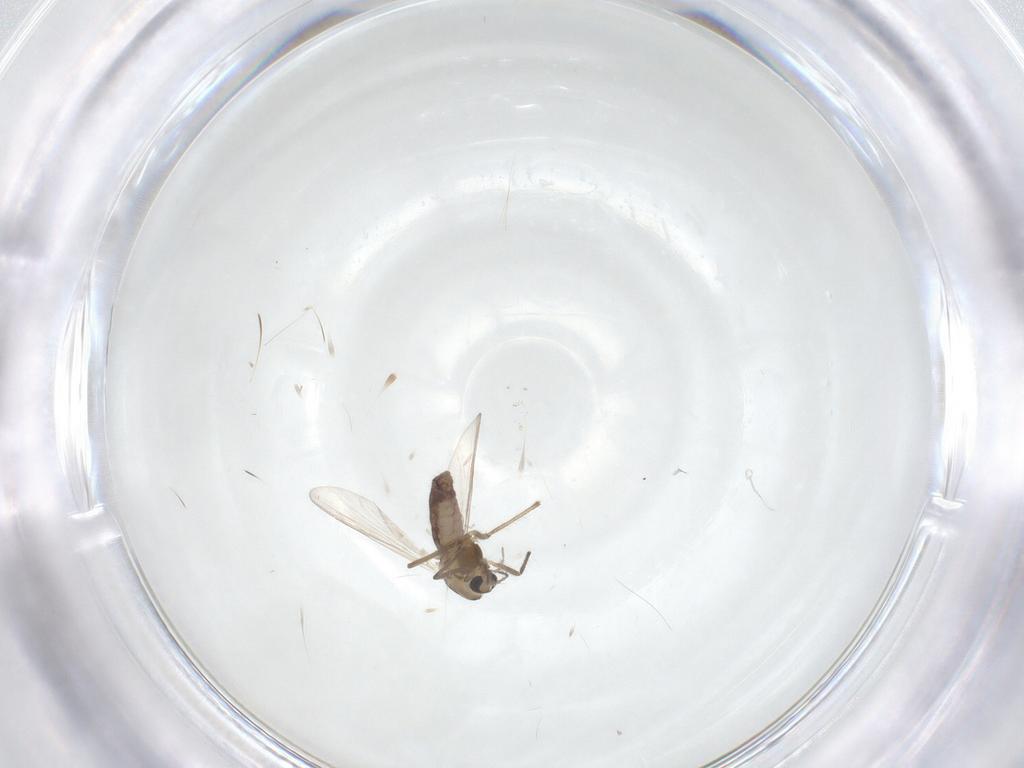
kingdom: Animalia
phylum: Arthropoda
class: Insecta
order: Diptera
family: Chironomidae
